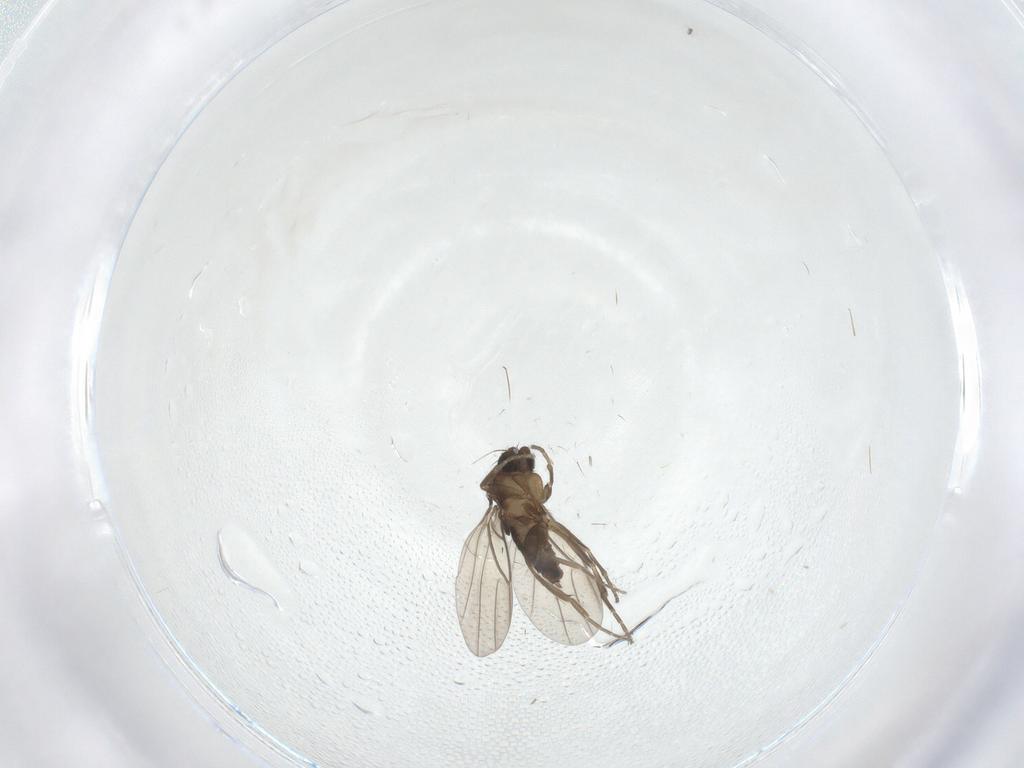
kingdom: Animalia
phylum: Arthropoda
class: Insecta
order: Diptera
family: Phoridae
